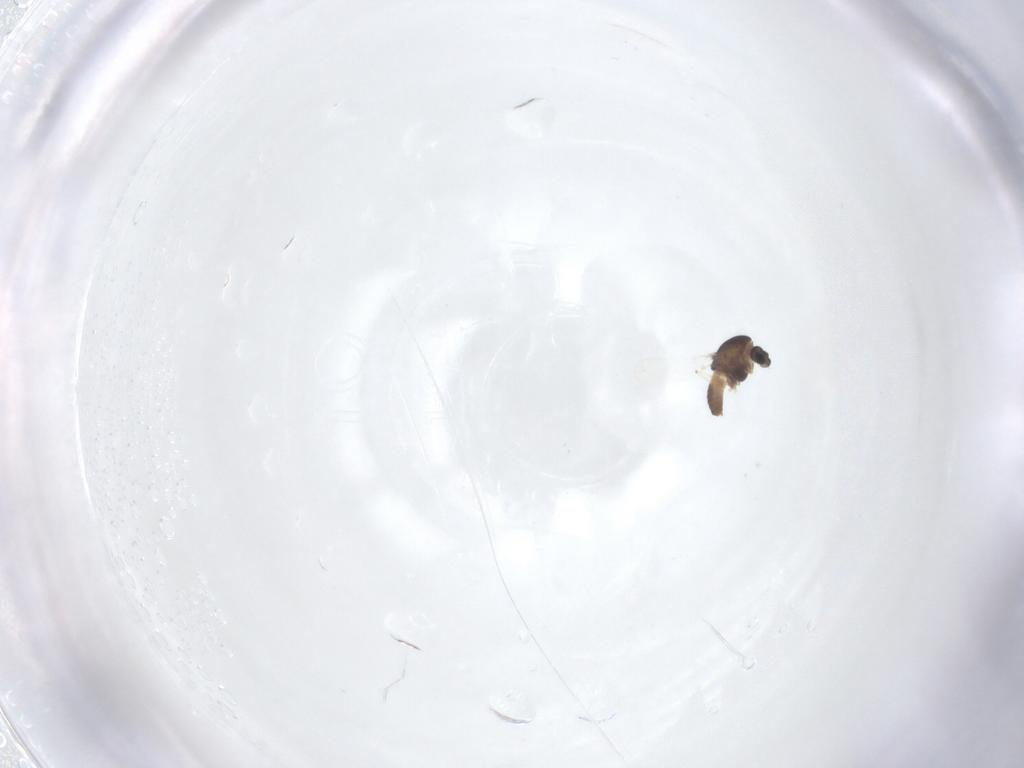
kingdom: Animalia
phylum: Arthropoda
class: Insecta
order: Diptera
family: Chironomidae
